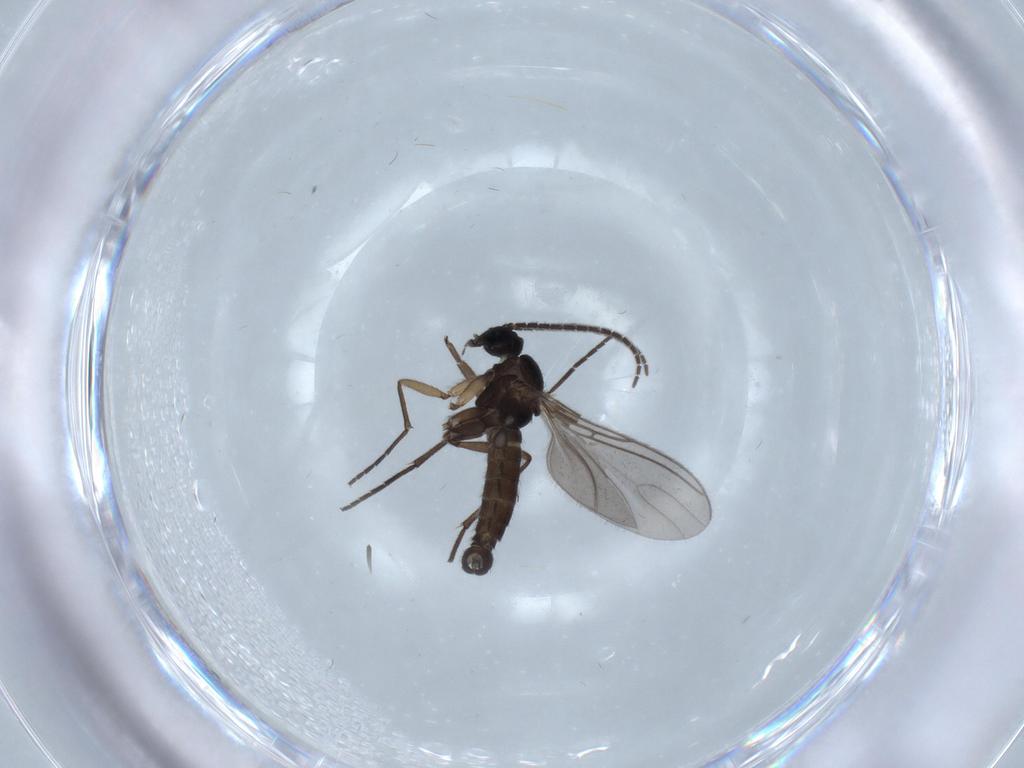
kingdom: Animalia
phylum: Arthropoda
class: Insecta
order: Diptera
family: Sciaridae
